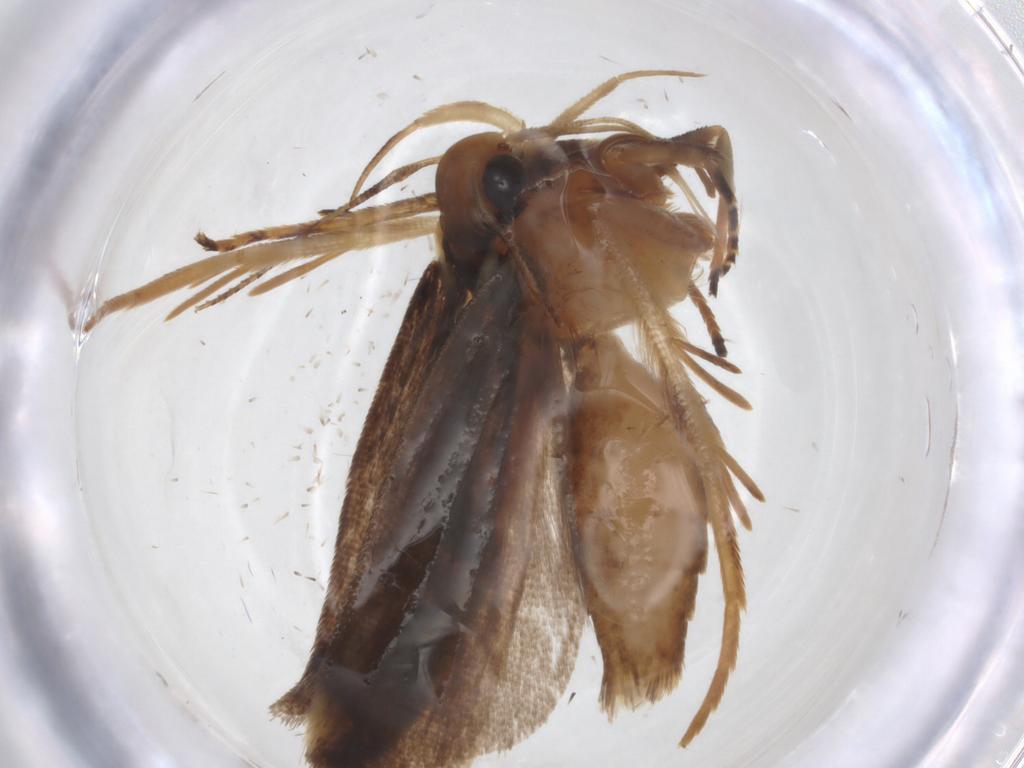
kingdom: Animalia
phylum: Arthropoda
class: Insecta
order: Lepidoptera
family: Gelechiidae
